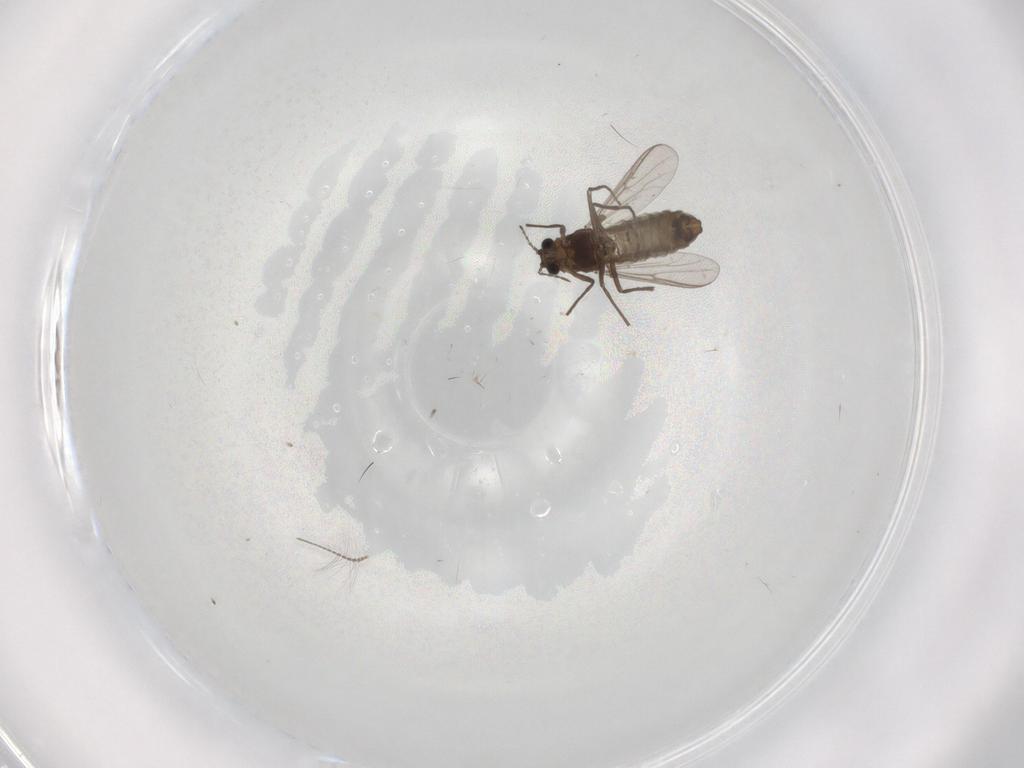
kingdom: Animalia
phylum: Arthropoda
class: Insecta
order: Diptera
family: Chironomidae
